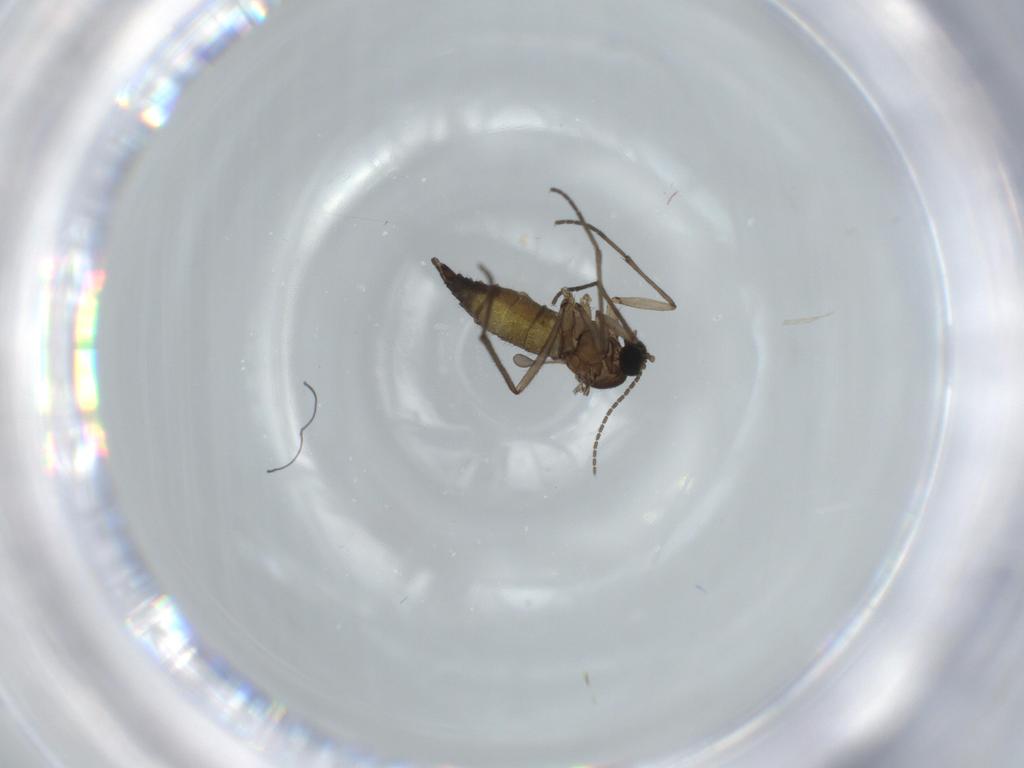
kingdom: Animalia
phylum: Arthropoda
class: Insecta
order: Diptera
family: Sciaridae
